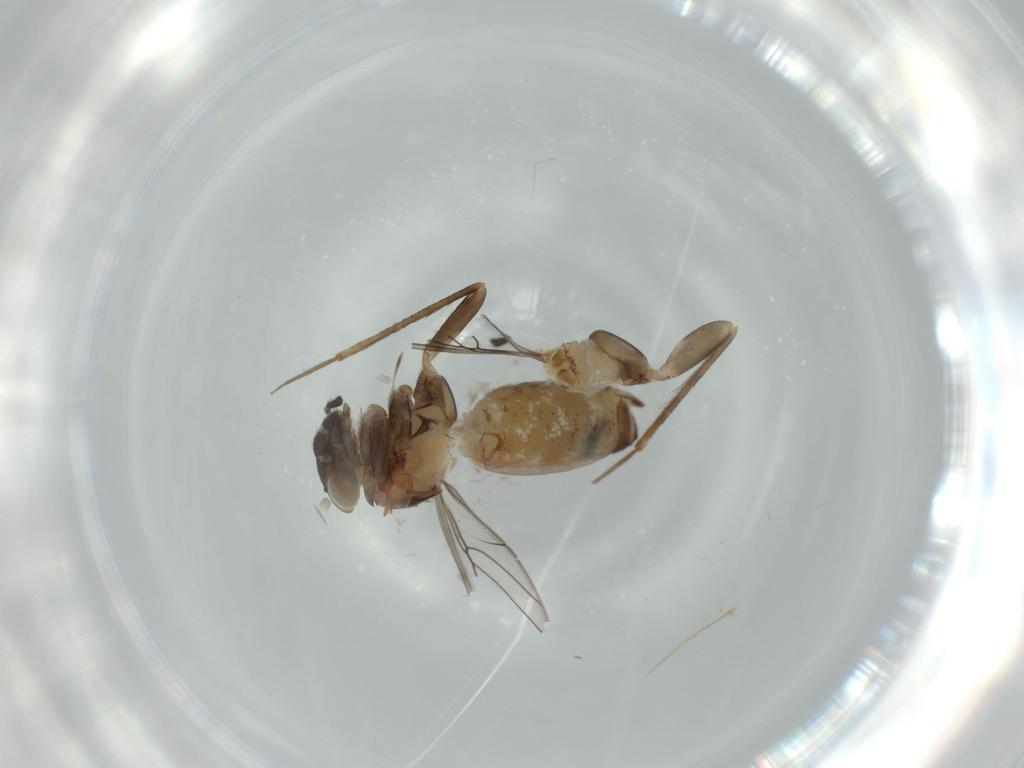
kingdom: Animalia
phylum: Arthropoda
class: Insecta
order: Psocodea
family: Lepidopsocidae
